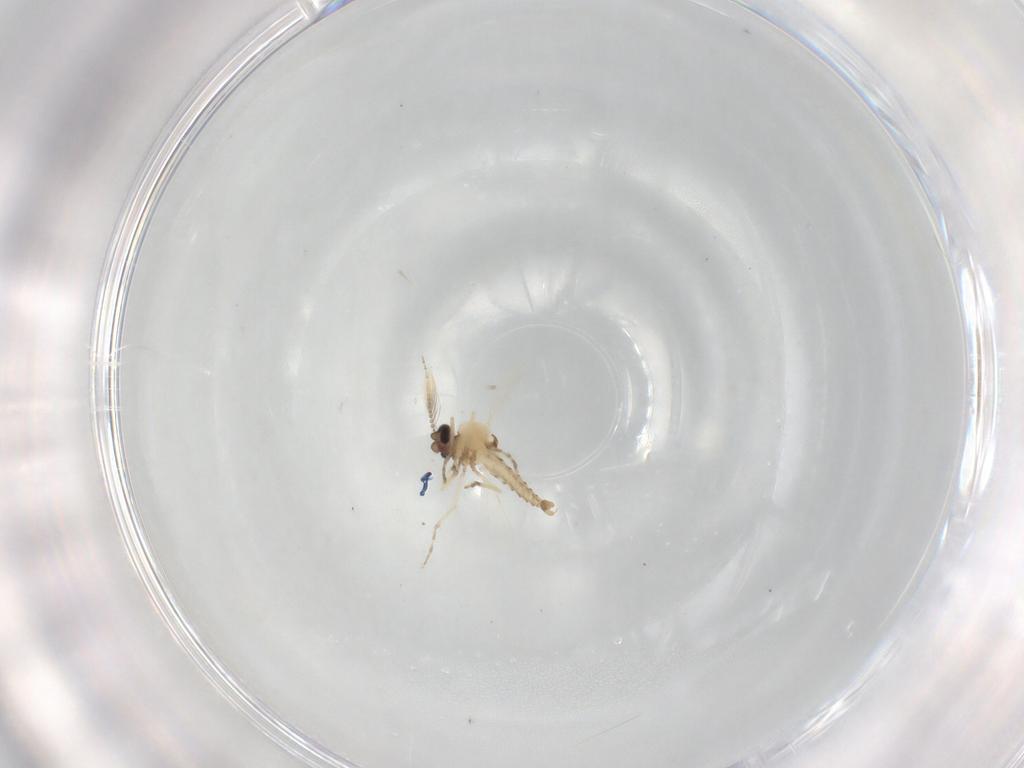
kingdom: Animalia
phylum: Arthropoda
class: Insecta
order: Diptera
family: Ceratopogonidae
